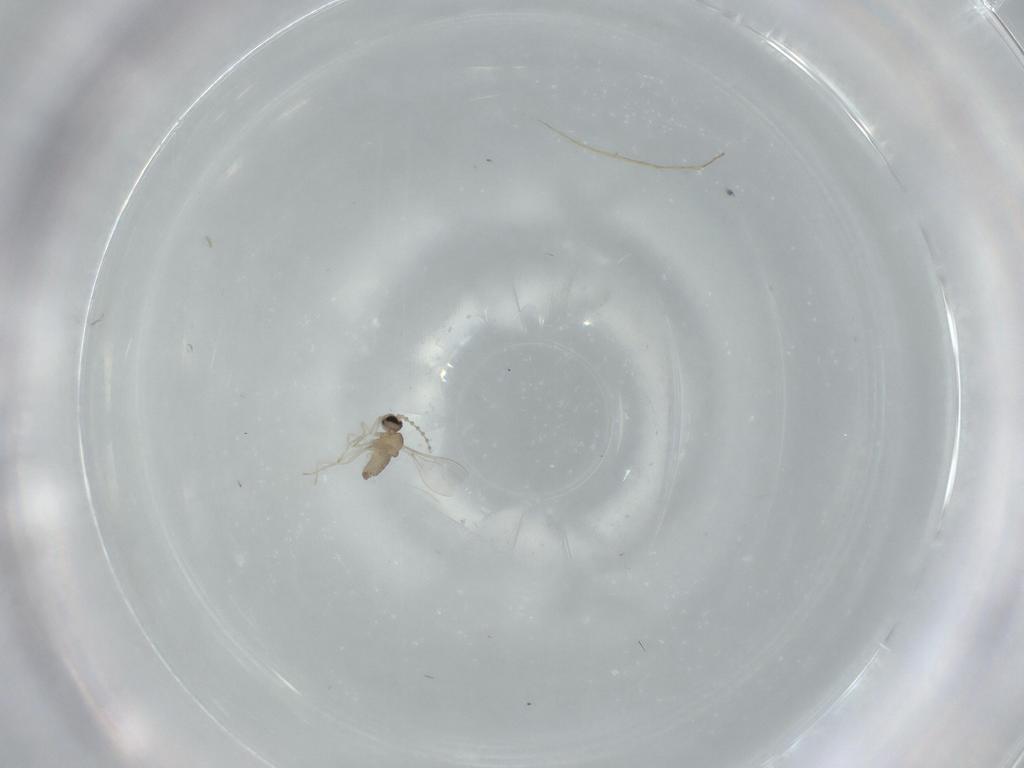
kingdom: Animalia
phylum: Arthropoda
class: Insecta
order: Diptera
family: Cecidomyiidae
